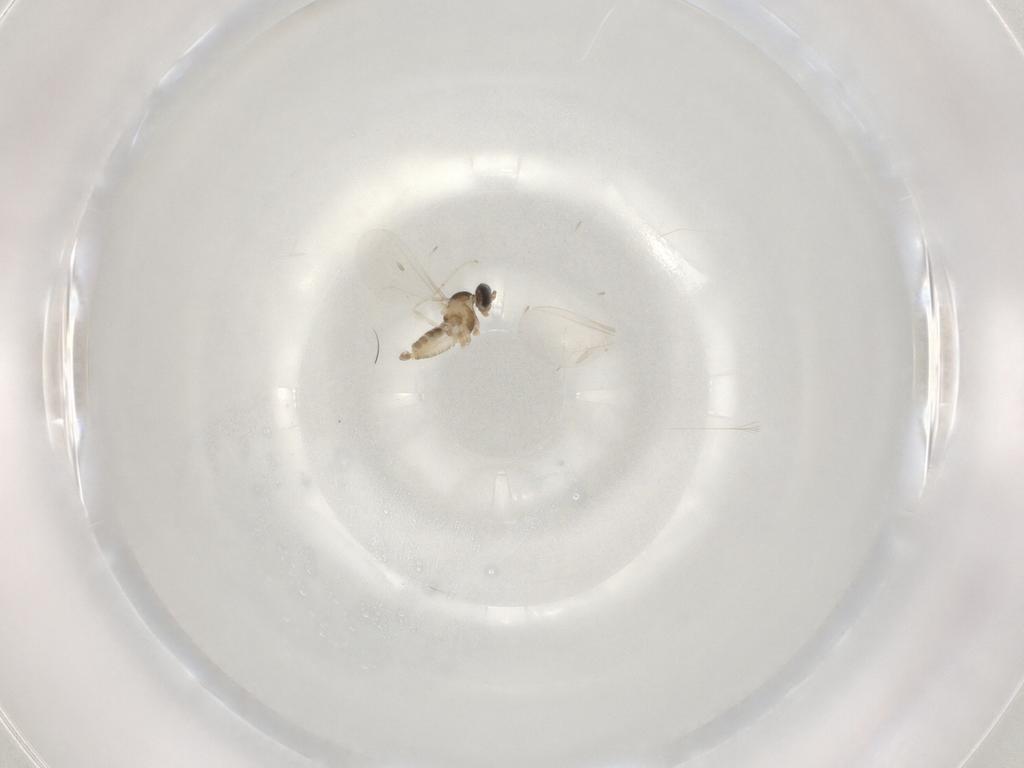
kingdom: Animalia
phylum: Arthropoda
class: Insecta
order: Diptera
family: Cecidomyiidae
